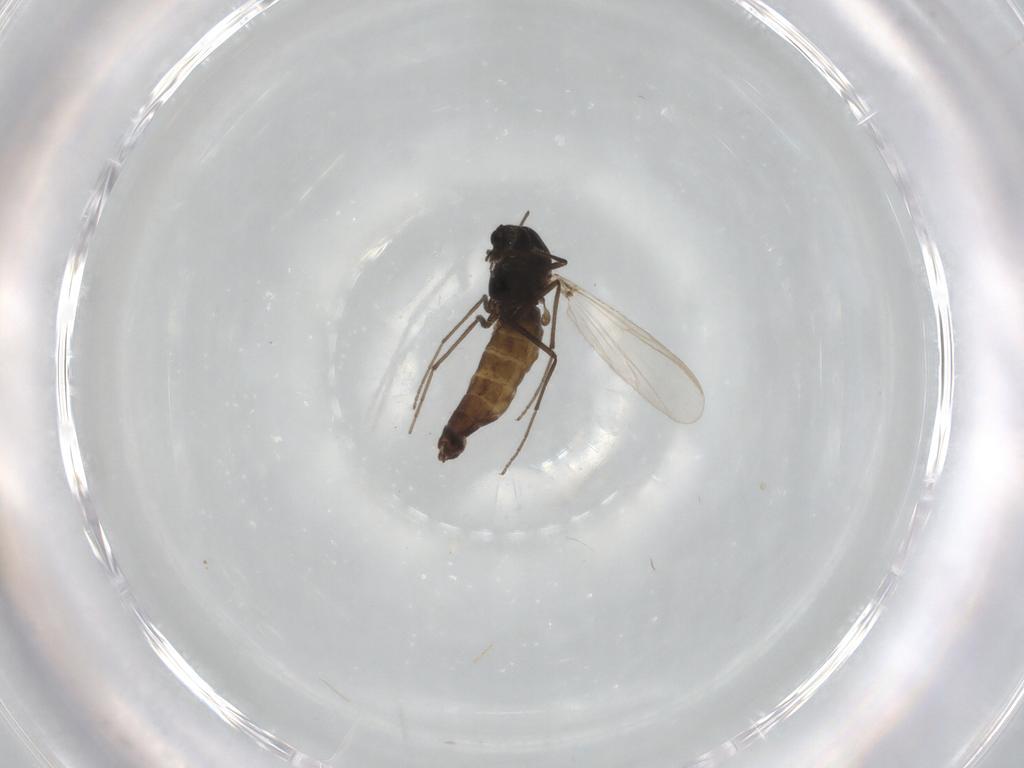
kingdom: Animalia
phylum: Arthropoda
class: Insecta
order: Diptera
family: Chironomidae
